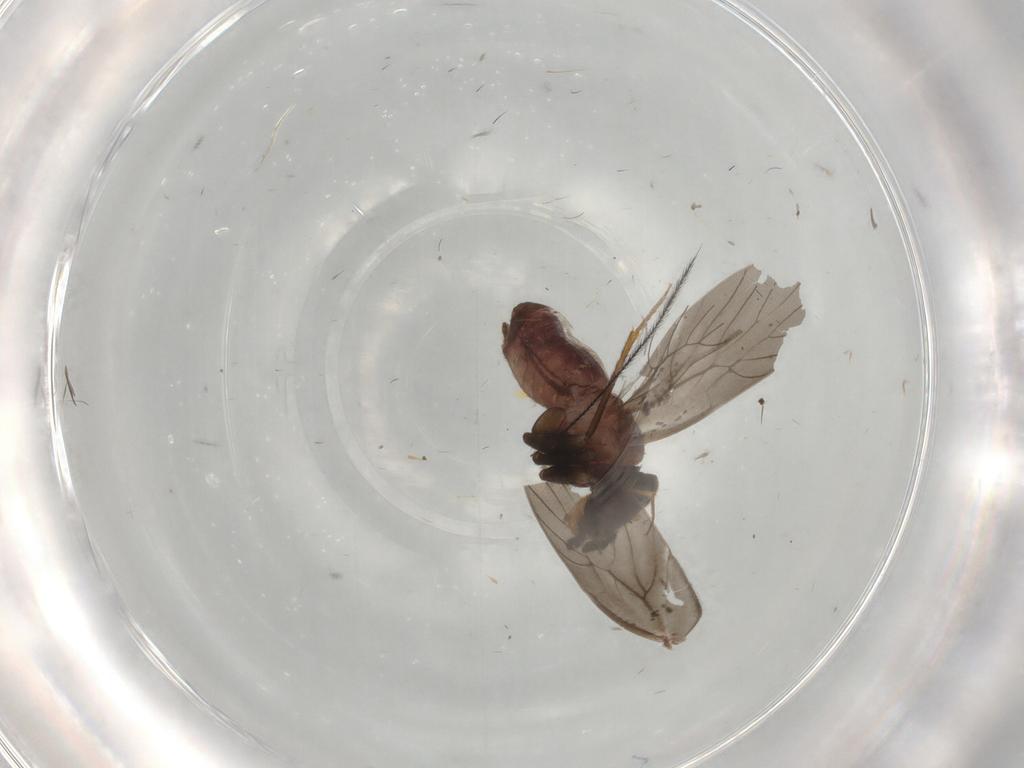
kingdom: Animalia
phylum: Arthropoda
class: Insecta
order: Psocodea
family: Lepidopsocidae
